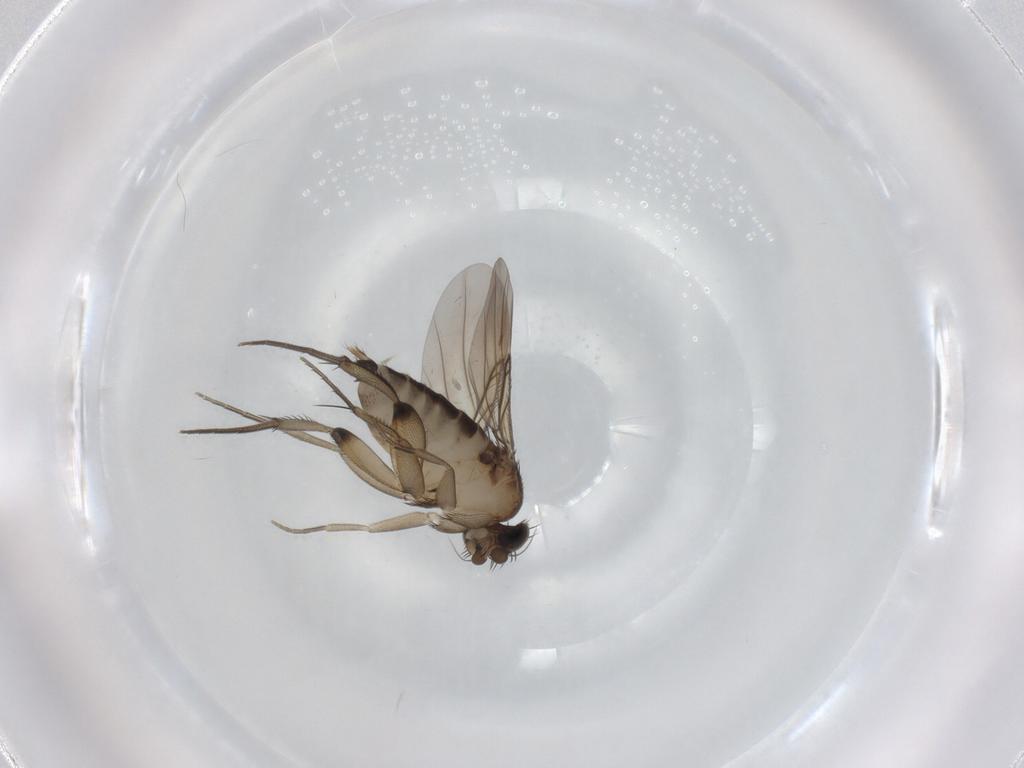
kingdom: Animalia
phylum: Arthropoda
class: Insecta
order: Diptera
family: Phoridae
